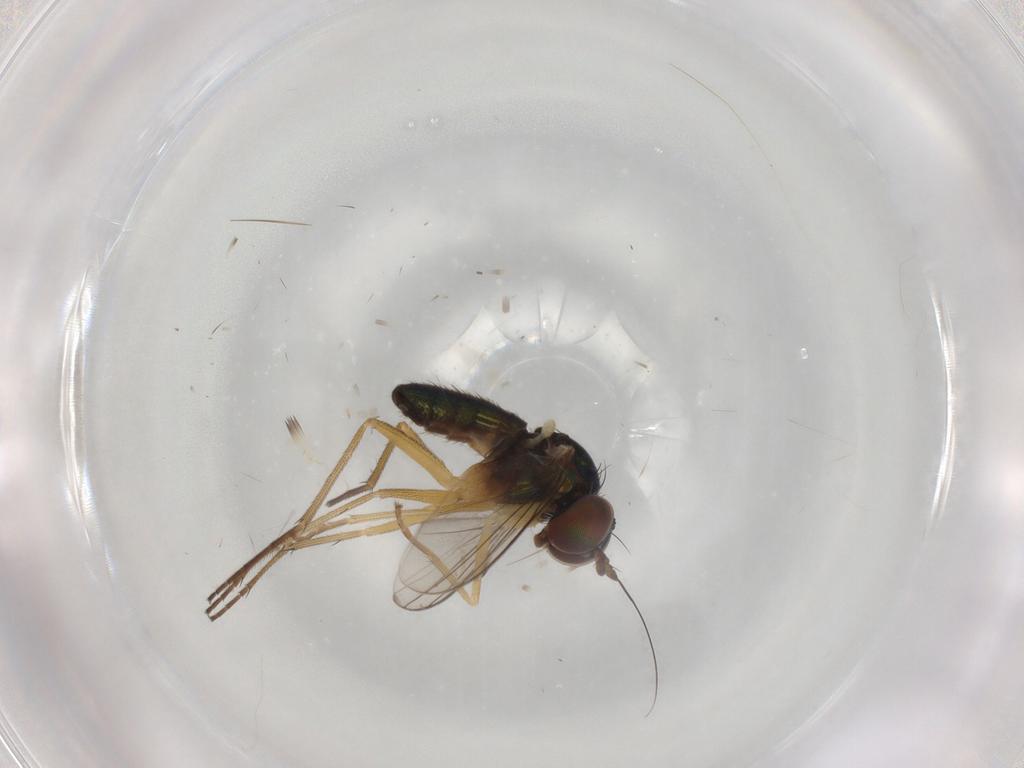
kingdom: Animalia
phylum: Arthropoda
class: Insecta
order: Diptera
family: Dolichopodidae
